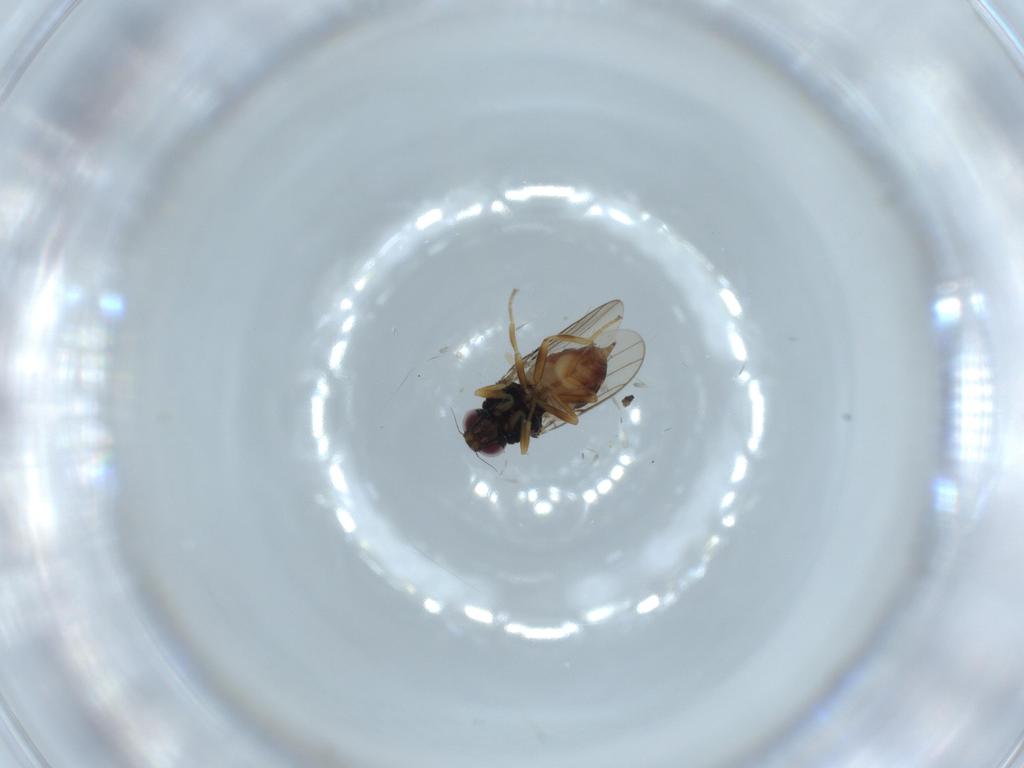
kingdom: Animalia
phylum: Arthropoda
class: Insecta
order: Diptera
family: Chloropidae
